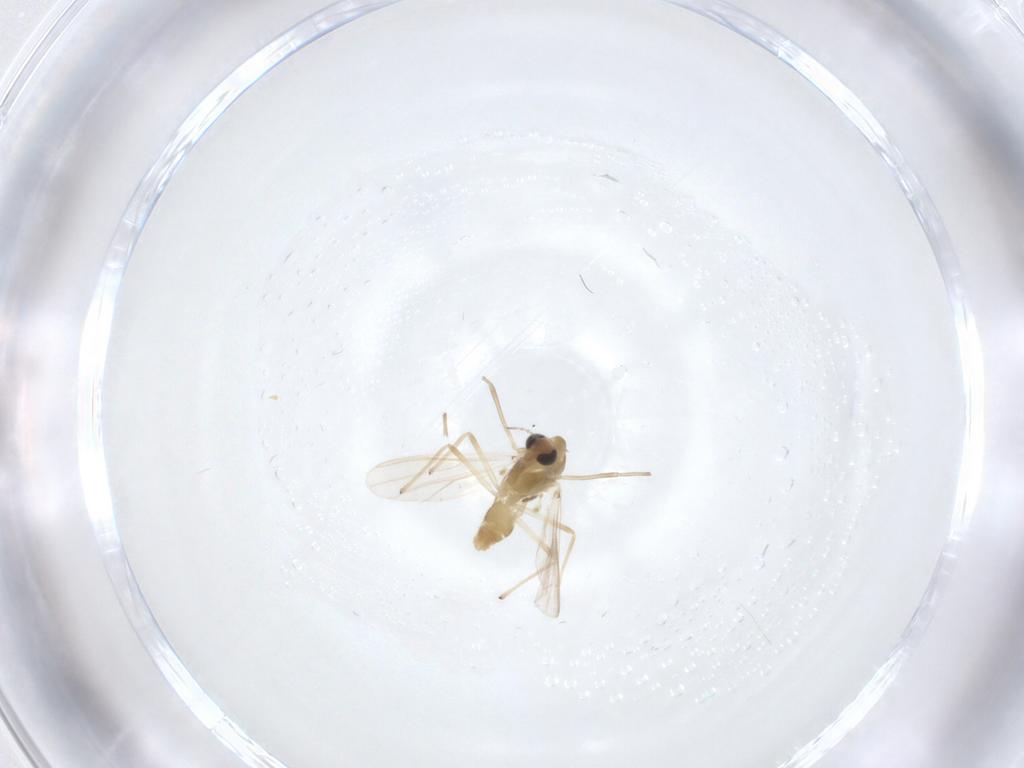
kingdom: Animalia
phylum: Arthropoda
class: Insecta
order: Diptera
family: Chironomidae
